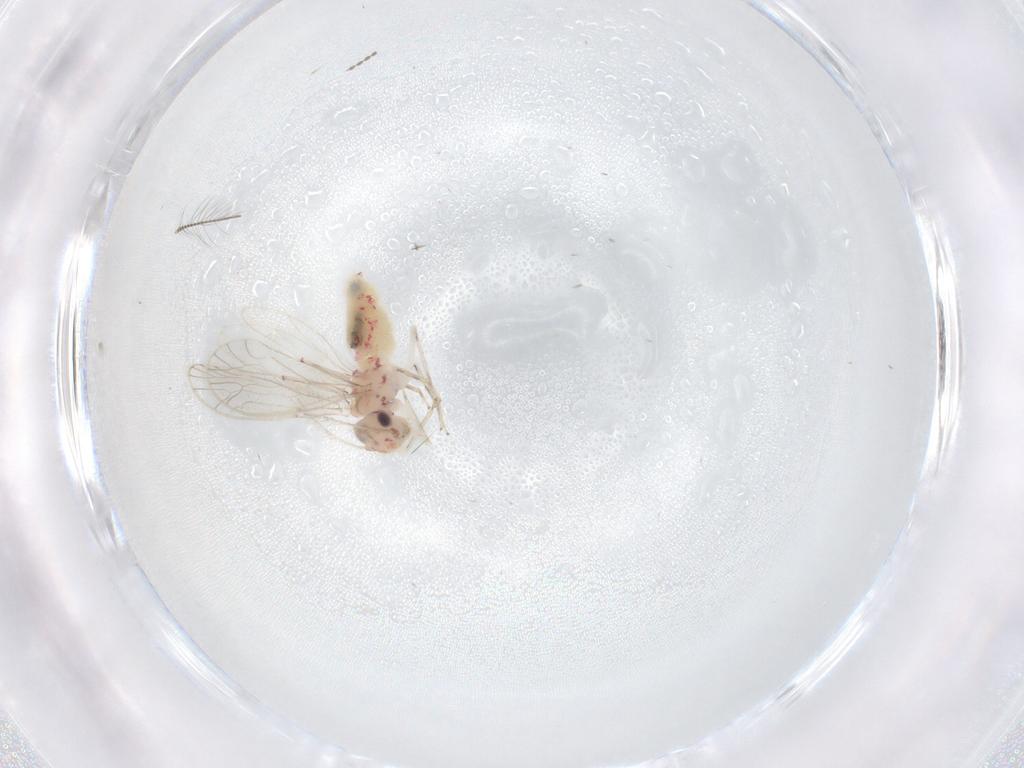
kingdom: Animalia
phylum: Arthropoda
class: Insecta
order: Psocodea
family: Caeciliusidae
